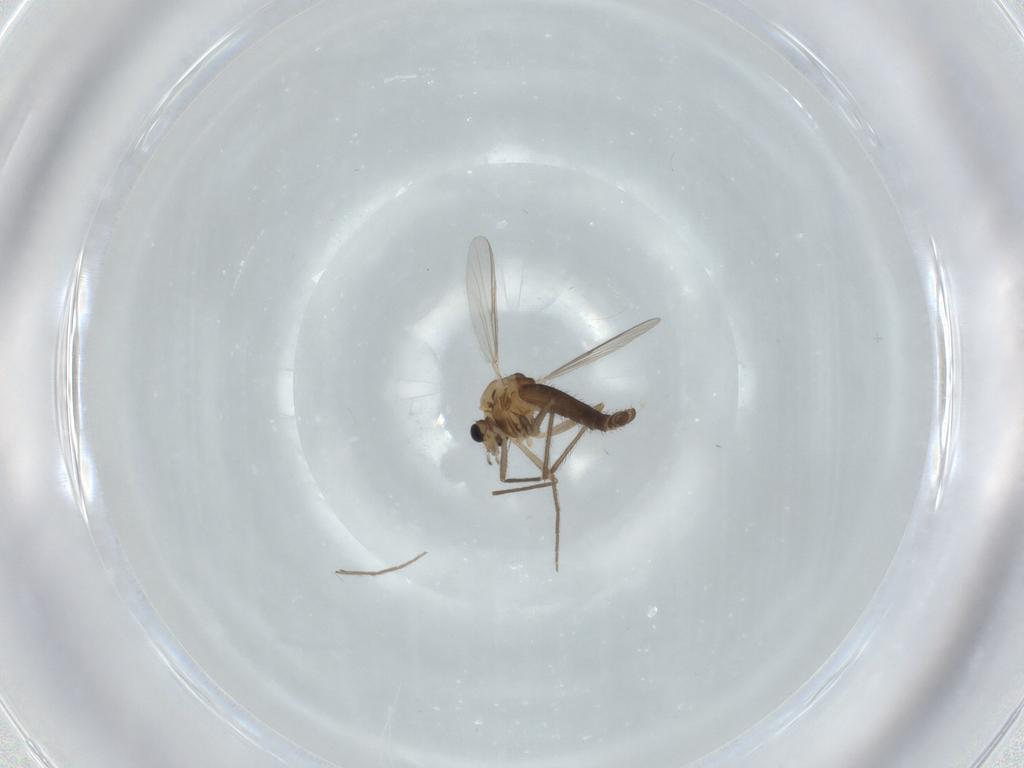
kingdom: Animalia
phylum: Arthropoda
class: Insecta
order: Diptera
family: Chironomidae
